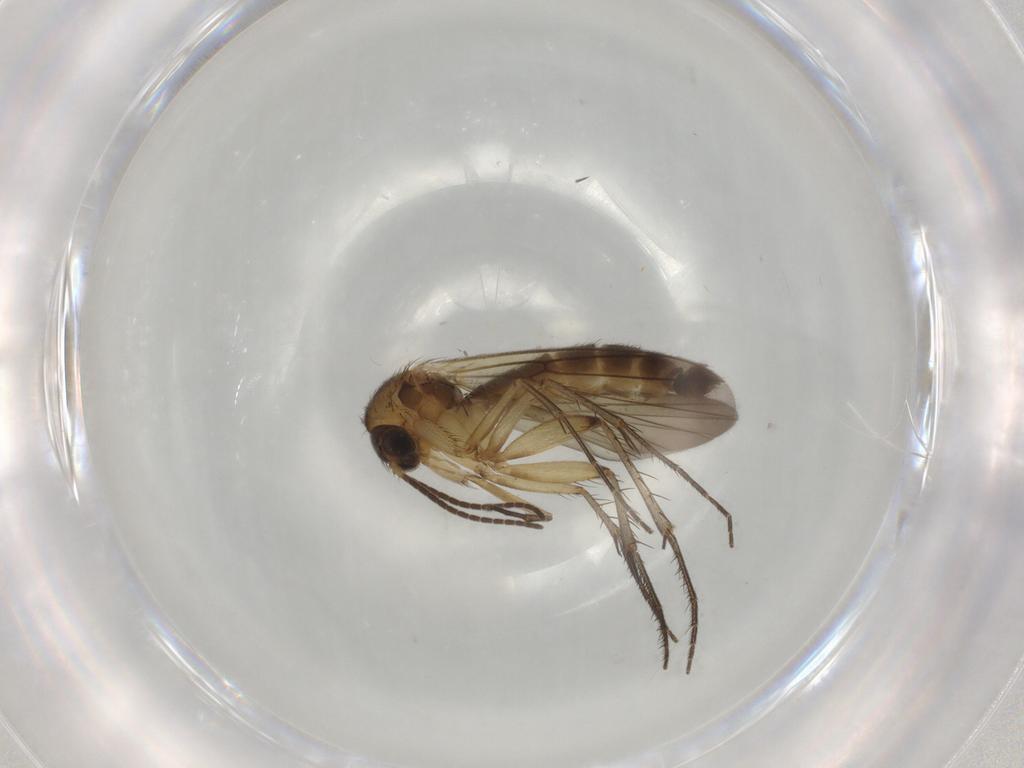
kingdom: Animalia
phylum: Arthropoda
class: Insecta
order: Diptera
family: Mycetophilidae
